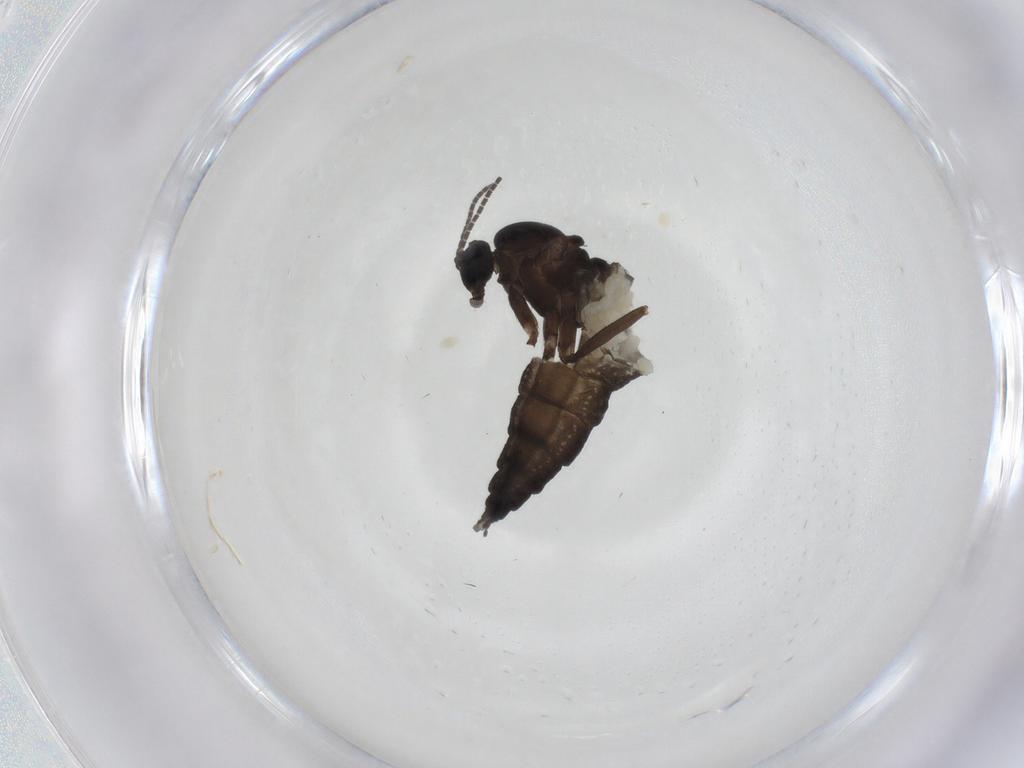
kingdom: Animalia
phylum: Arthropoda
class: Insecta
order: Diptera
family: Sciaridae
